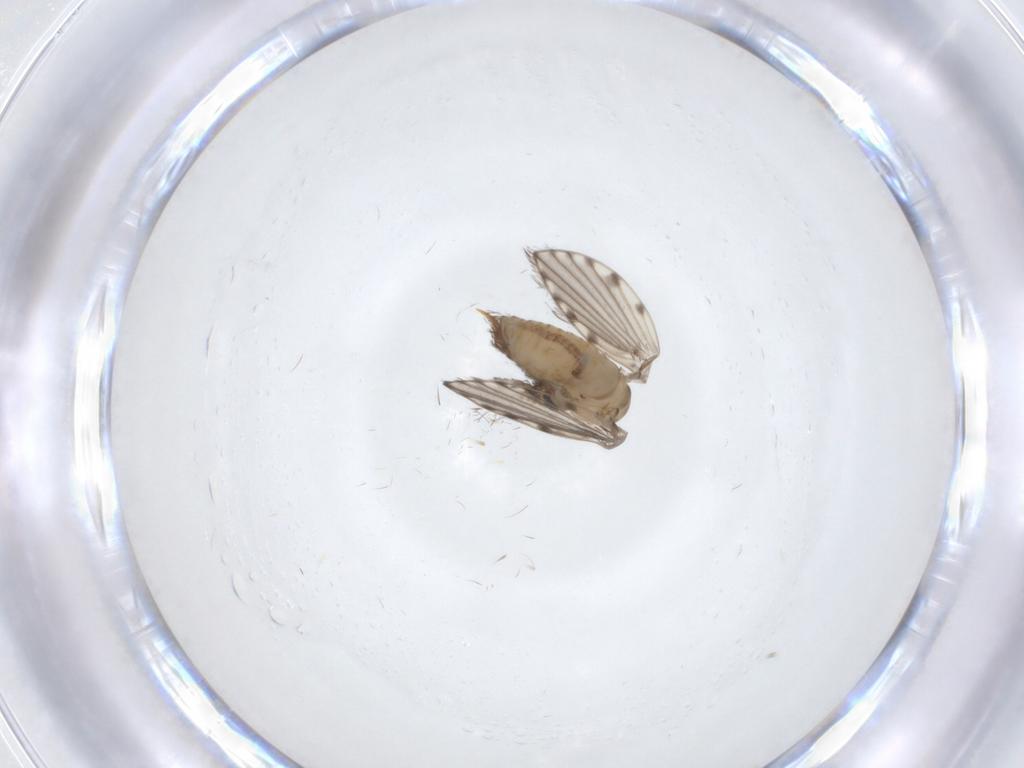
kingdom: Animalia
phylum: Arthropoda
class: Insecta
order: Diptera
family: Psychodidae
